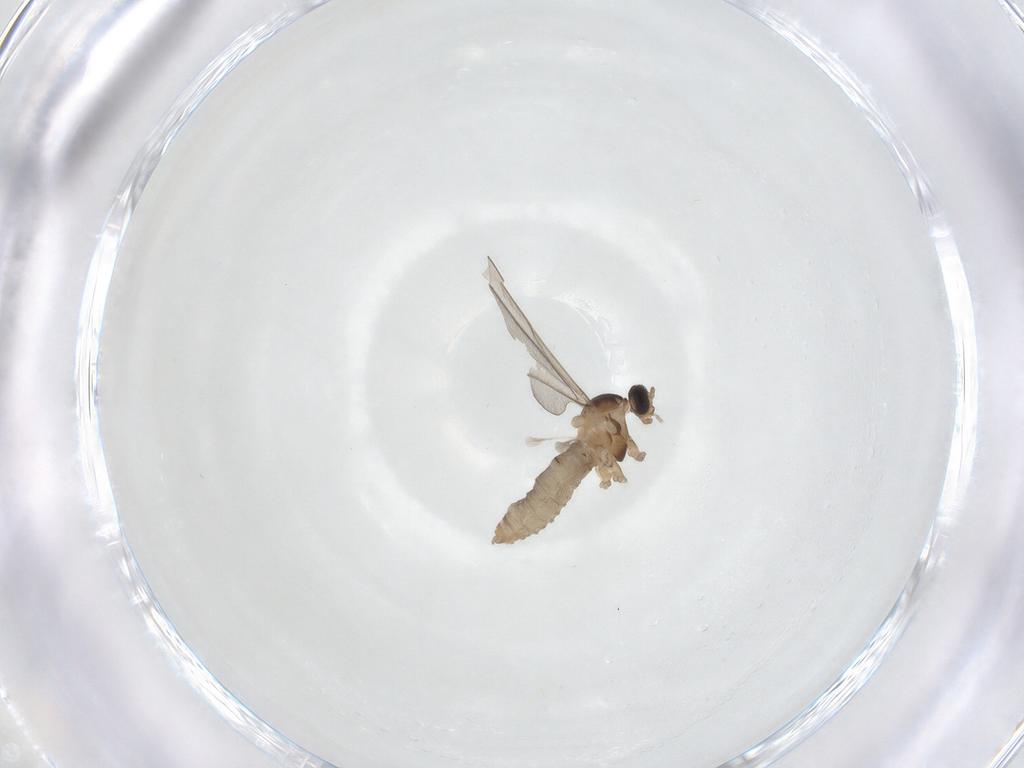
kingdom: Animalia
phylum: Arthropoda
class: Insecta
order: Diptera
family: Cecidomyiidae
